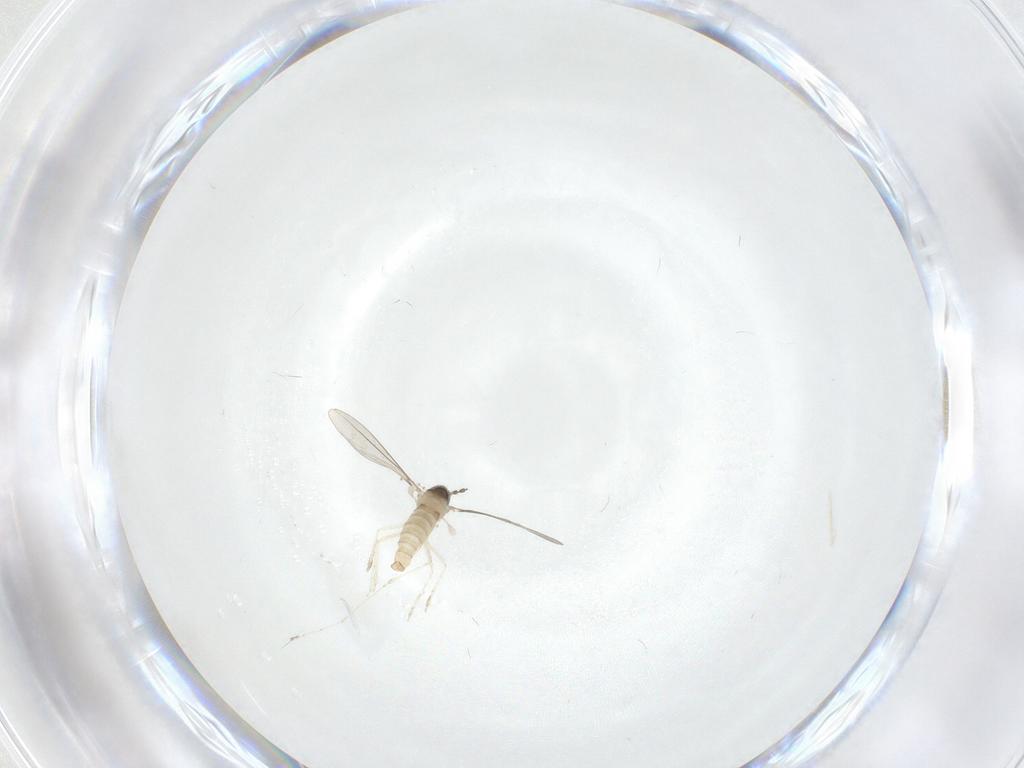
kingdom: Animalia
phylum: Arthropoda
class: Insecta
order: Diptera
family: Cecidomyiidae
